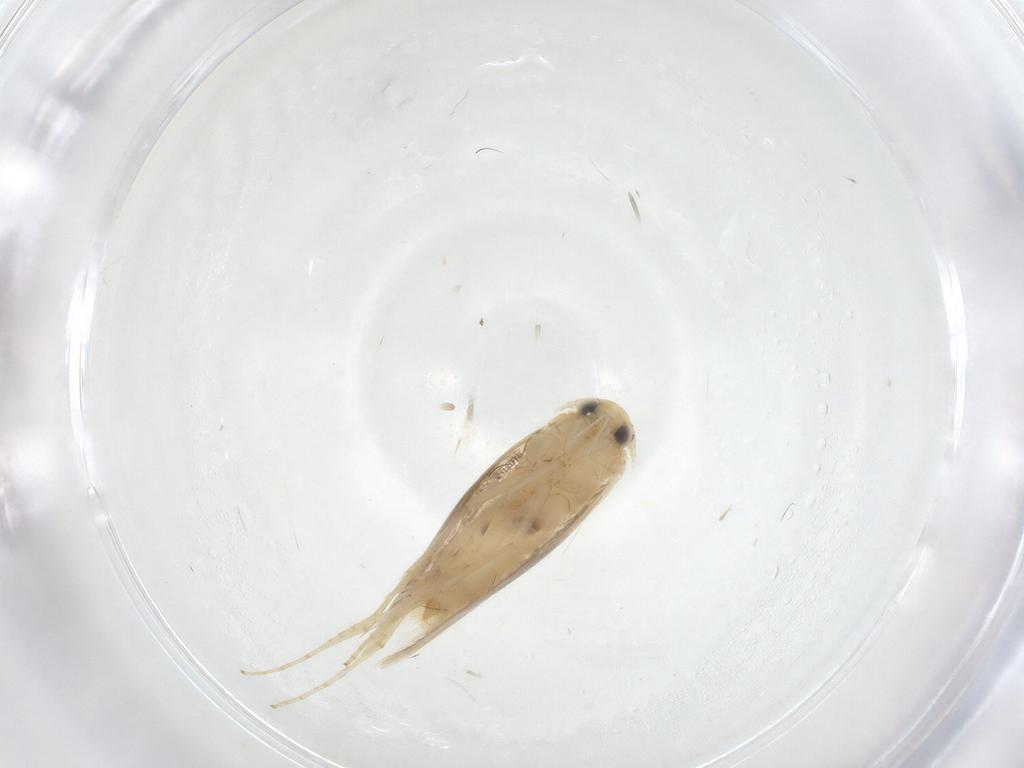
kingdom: Animalia
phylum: Arthropoda
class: Insecta
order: Lepidoptera
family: Gracillariidae
